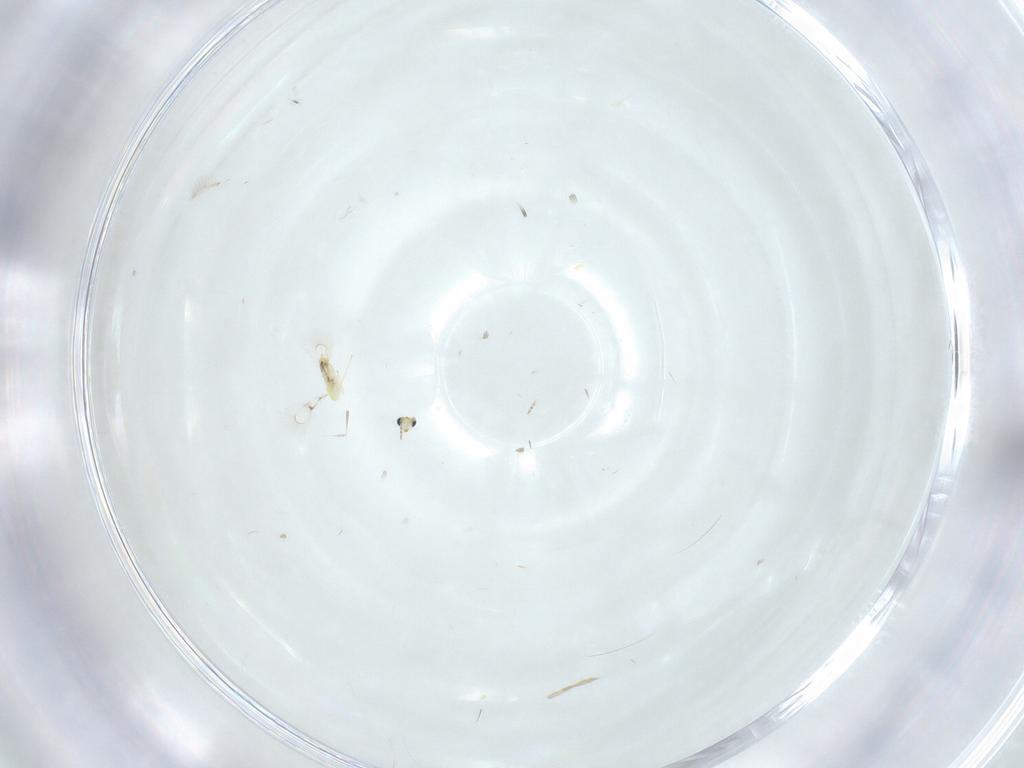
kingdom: Animalia
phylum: Arthropoda
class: Insecta
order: Hymenoptera
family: Trichogrammatidae
